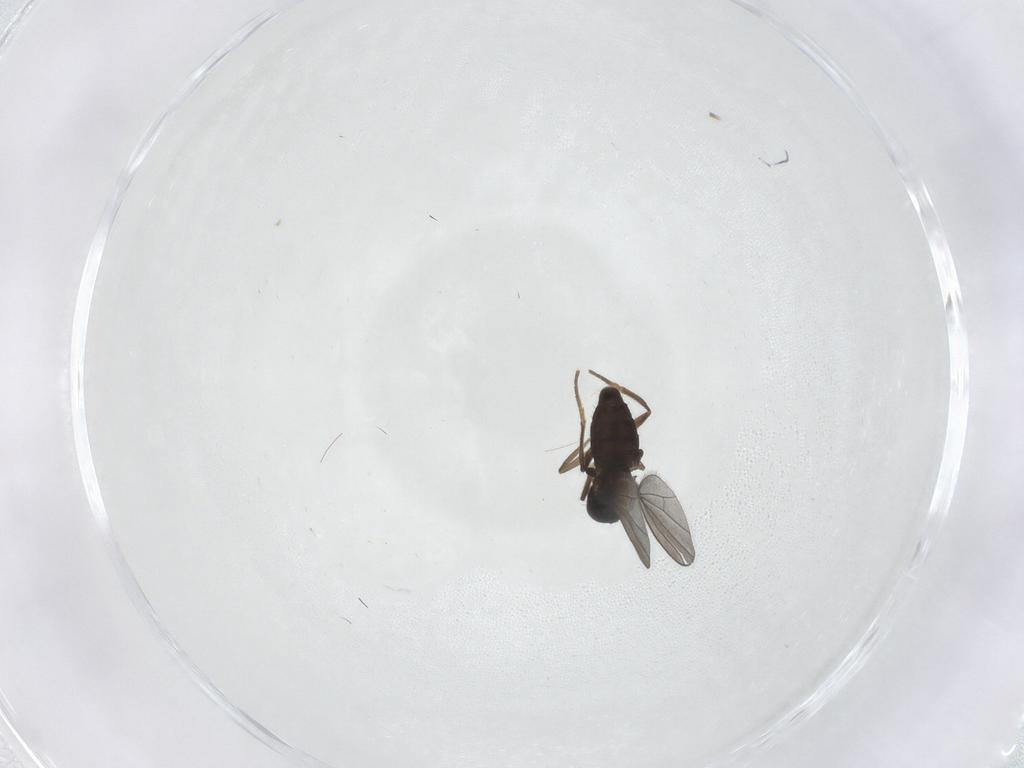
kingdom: Animalia
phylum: Arthropoda
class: Insecta
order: Diptera
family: Dolichopodidae
